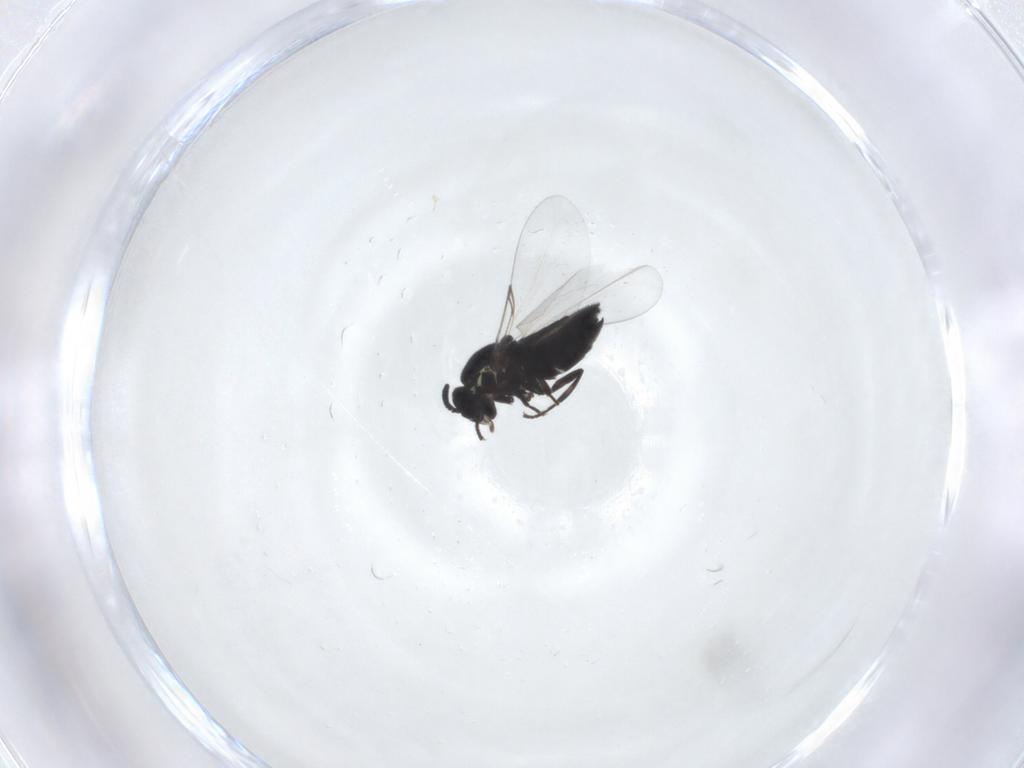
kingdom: Animalia
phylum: Arthropoda
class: Insecta
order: Diptera
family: Scatopsidae
